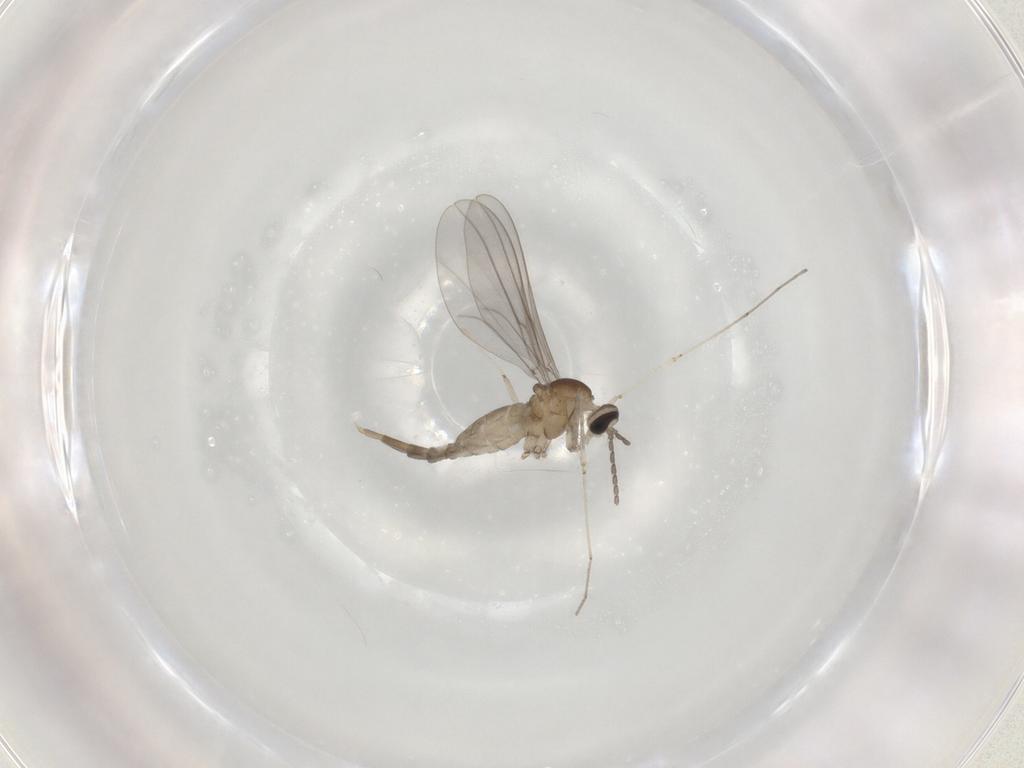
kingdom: Animalia
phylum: Arthropoda
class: Insecta
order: Diptera
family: Cecidomyiidae
